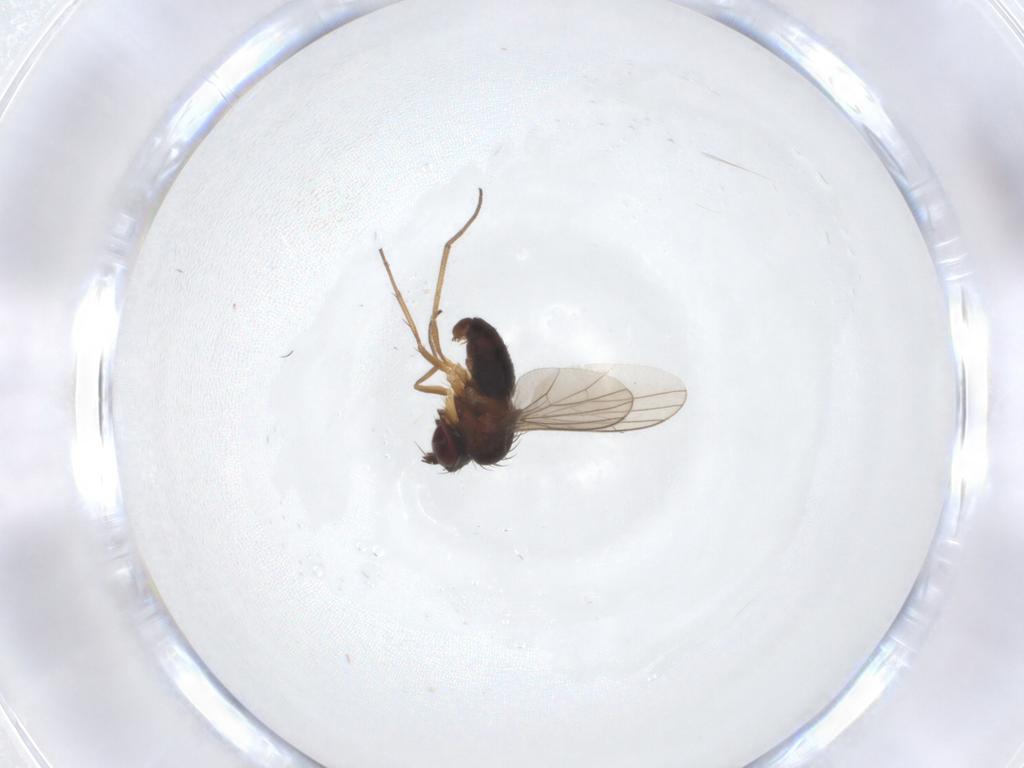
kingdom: Animalia
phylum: Arthropoda
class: Insecta
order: Diptera
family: Dolichopodidae
